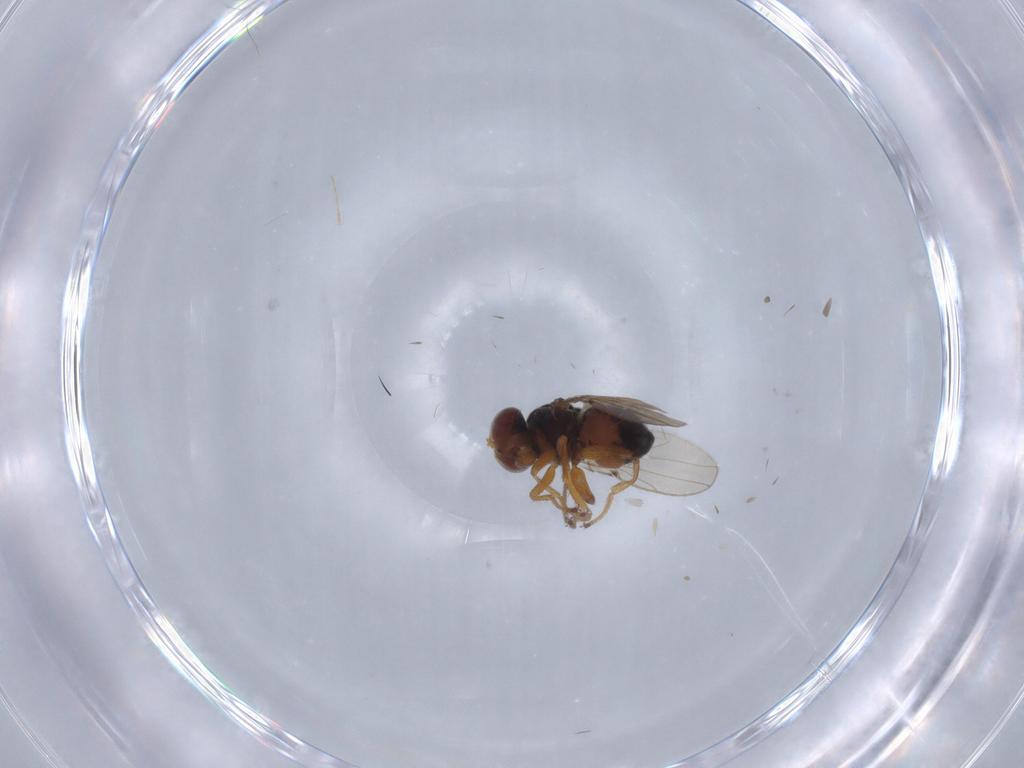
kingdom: Animalia
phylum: Arthropoda
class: Insecta
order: Diptera
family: Ephydridae
